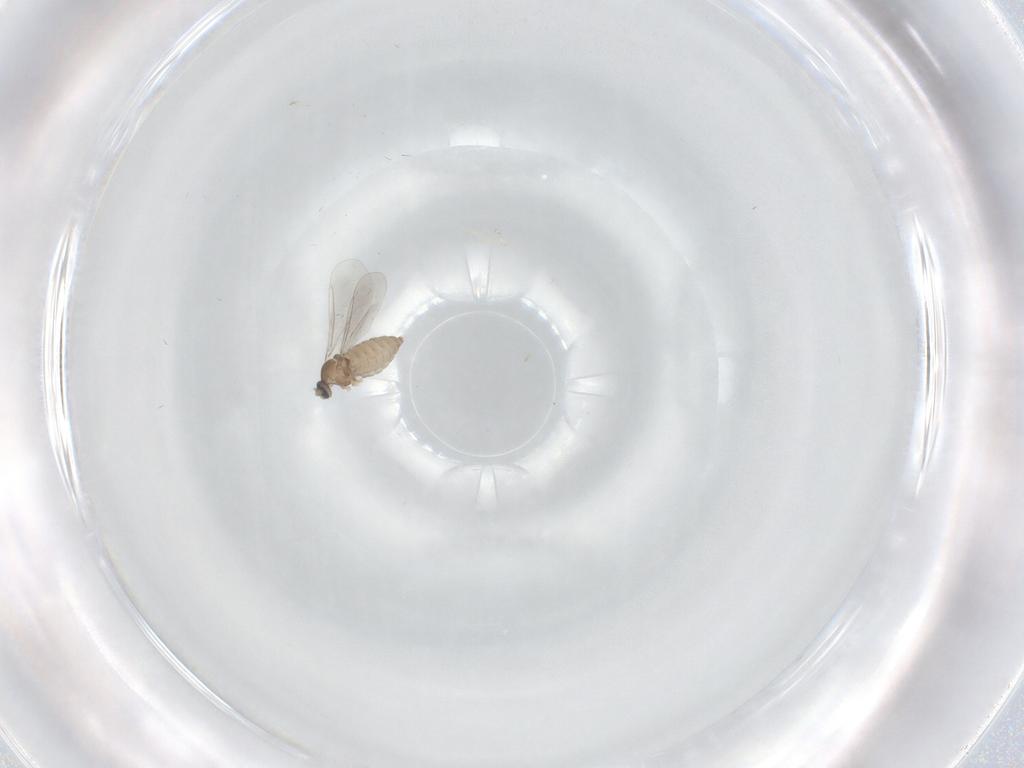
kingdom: Animalia
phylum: Arthropoda
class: Insecta
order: Diptera
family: Cecidomyiidae
